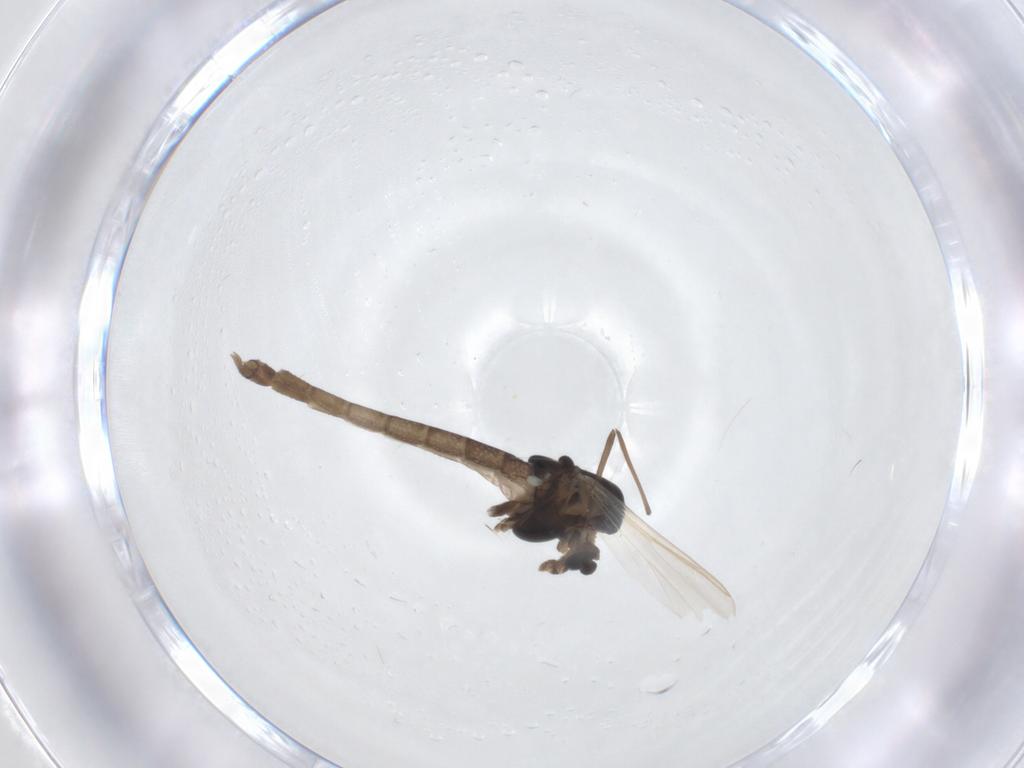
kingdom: Animalia
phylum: Arthropoda
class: Insecta
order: Diptera
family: Chironomidae
